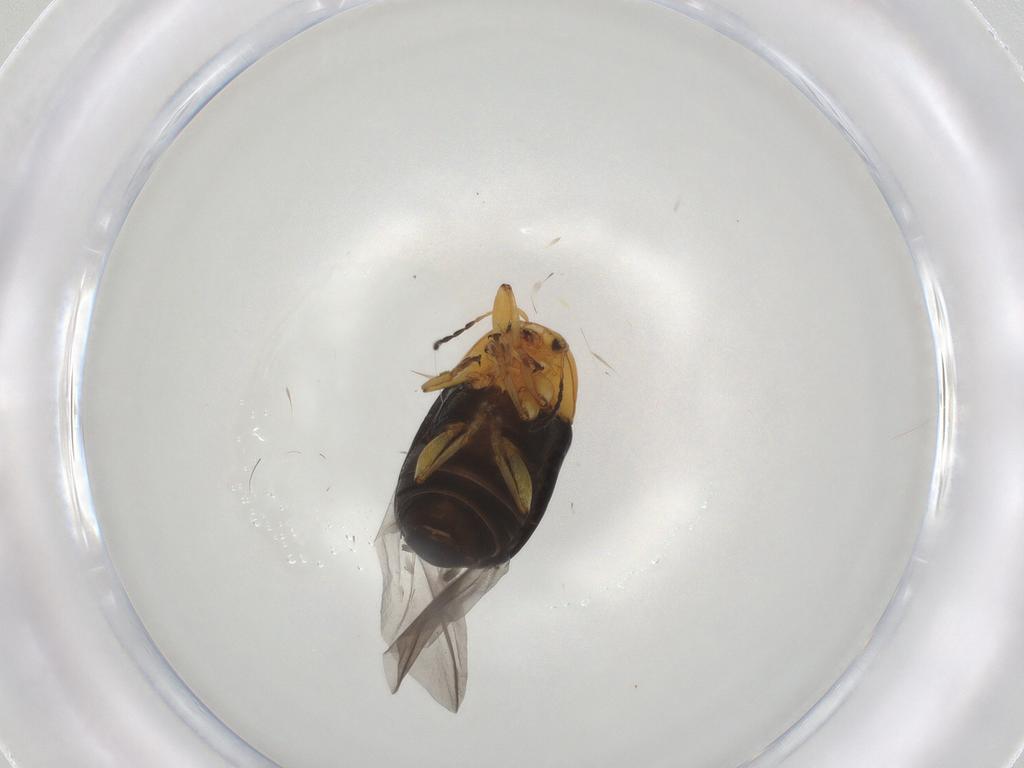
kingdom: Animalia
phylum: Arthropoda
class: Insecta
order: Coleoptera
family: Chrysomelidae
